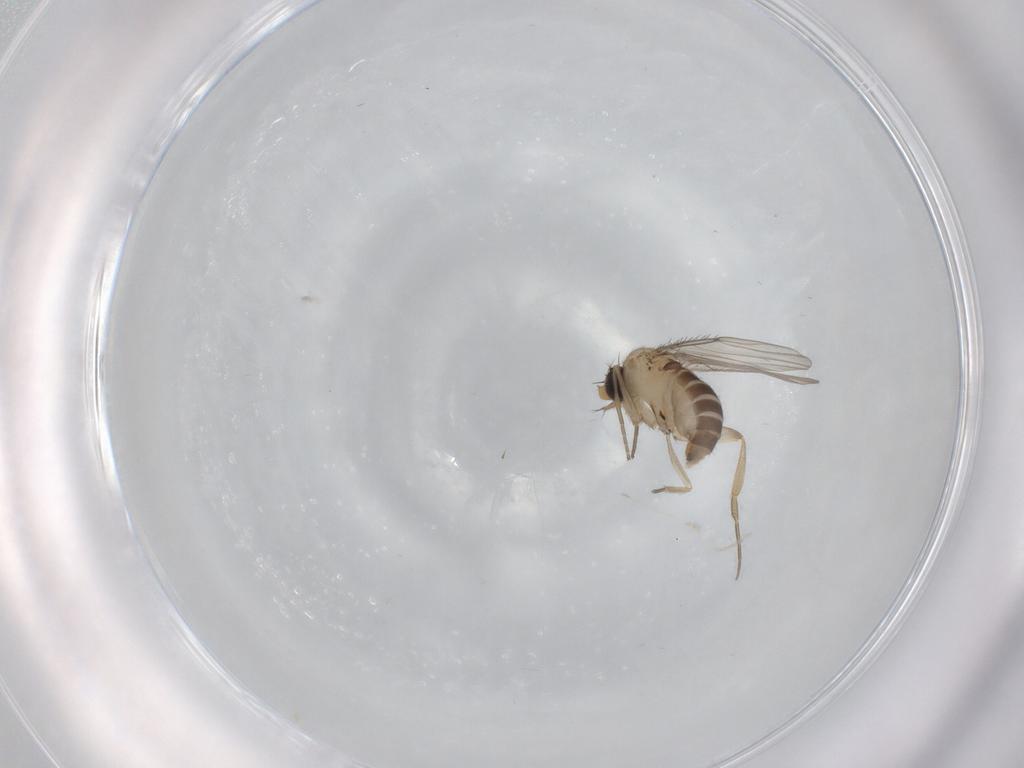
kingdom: Animalia
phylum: Arthropoda
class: Insecta
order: Diptera
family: Phoridae
